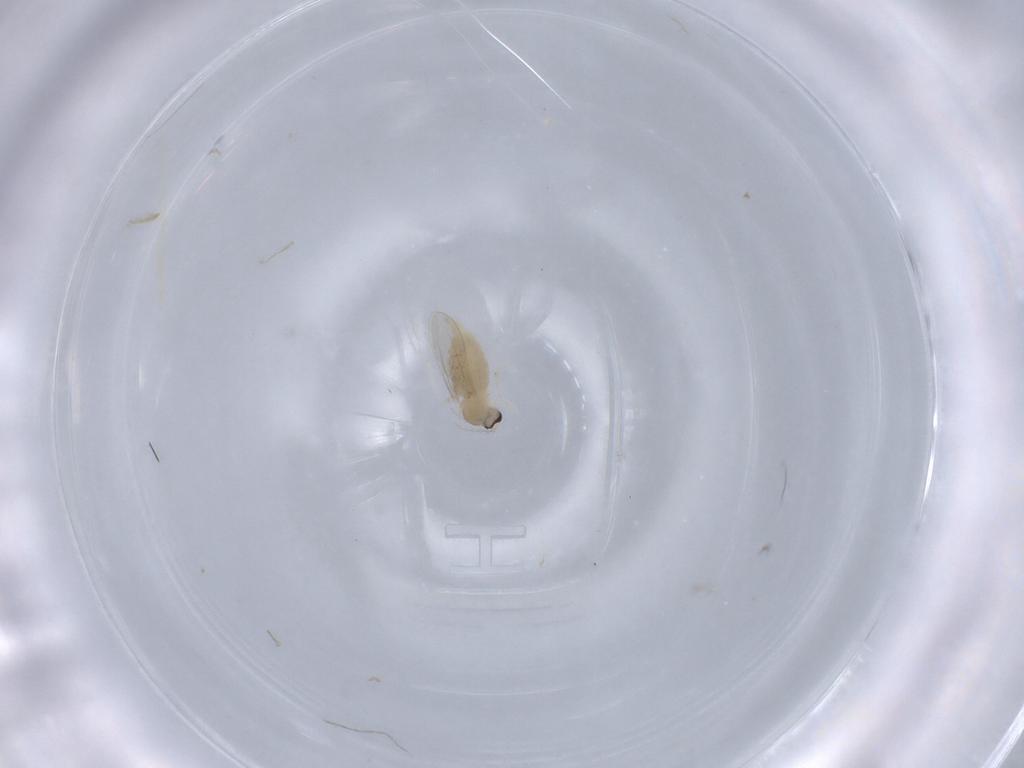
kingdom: Animalia
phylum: Arthropoda
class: Insecta
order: Diptera
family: Cecidomyiidae
